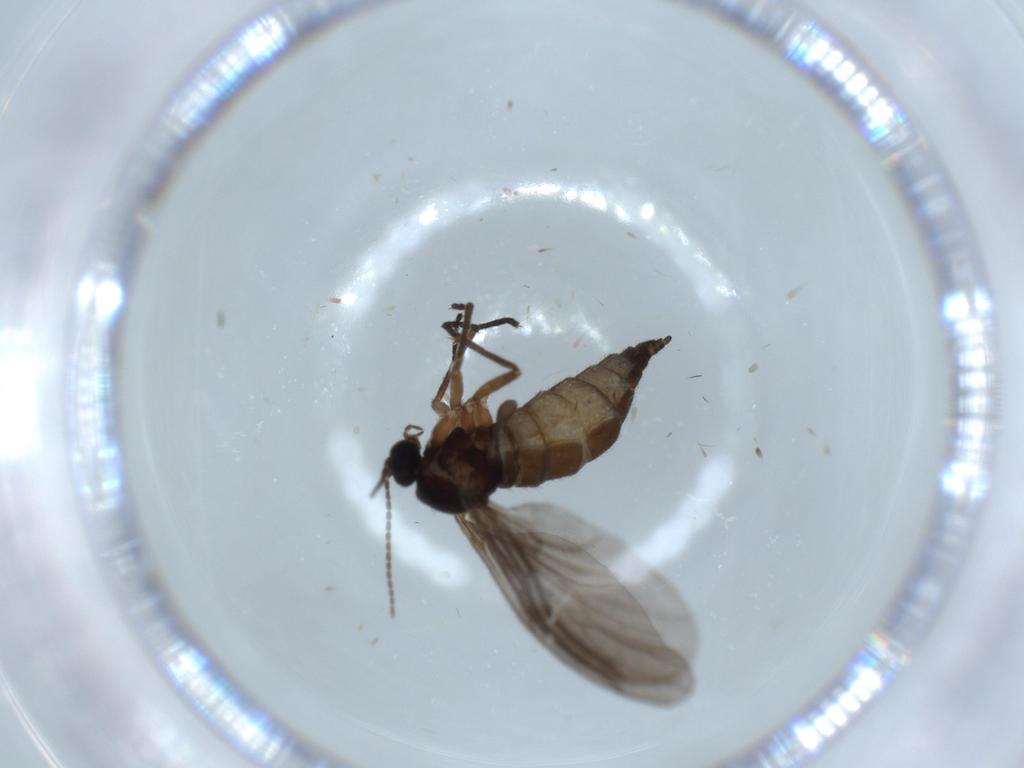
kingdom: Animalia
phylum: Arthropoda
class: Insecta
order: Diptera
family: Sciaridae
